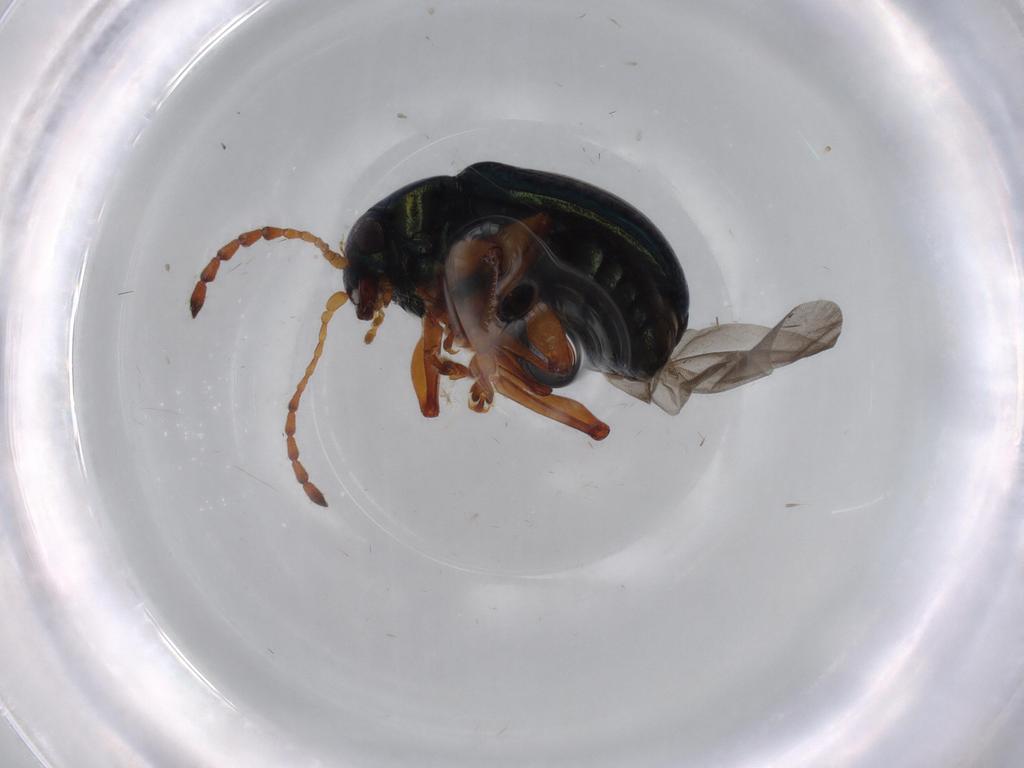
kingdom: Animalia
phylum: Arthropoda
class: Insecta
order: Coleoptera
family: Chrysomelidae
